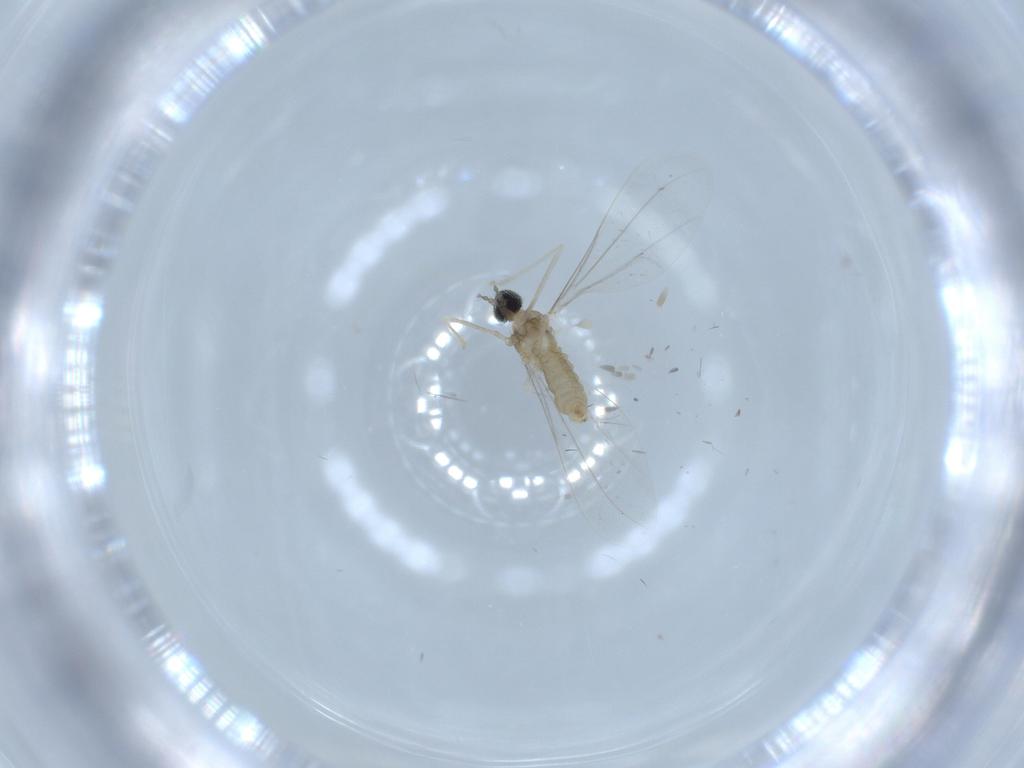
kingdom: Animalia
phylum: Arthropoda
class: Insecta
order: Diptera
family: Cecidomyiidae
